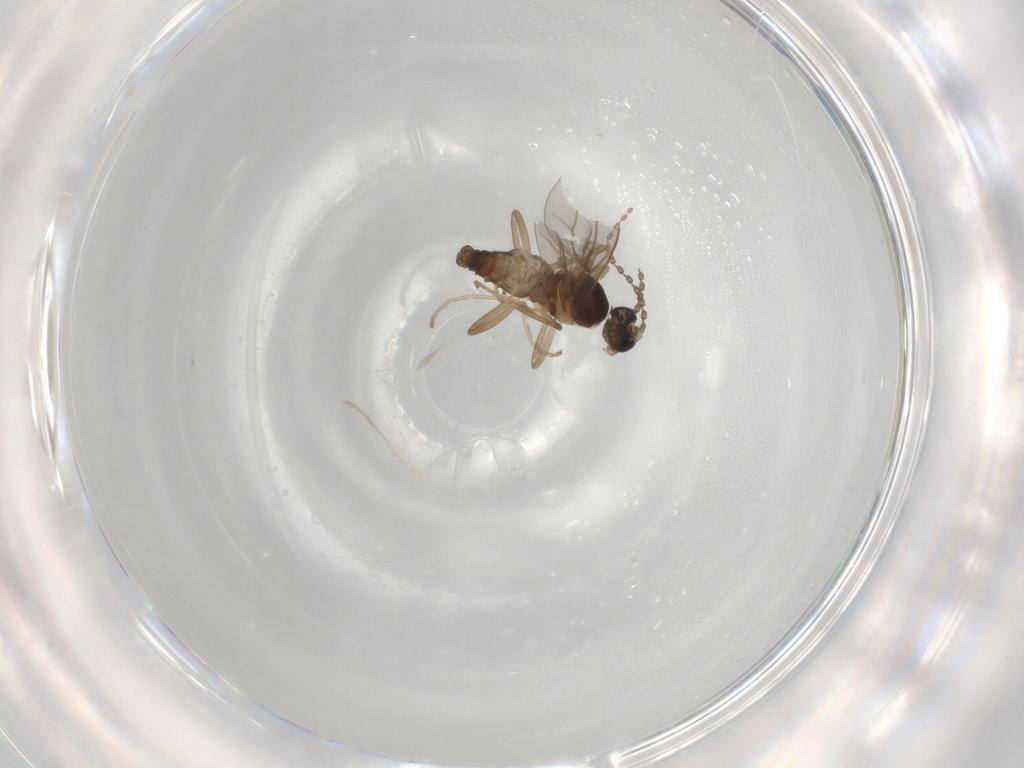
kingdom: Animalia
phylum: Arthropoda
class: Insecta
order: Diptera
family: Cecidomyiidae
